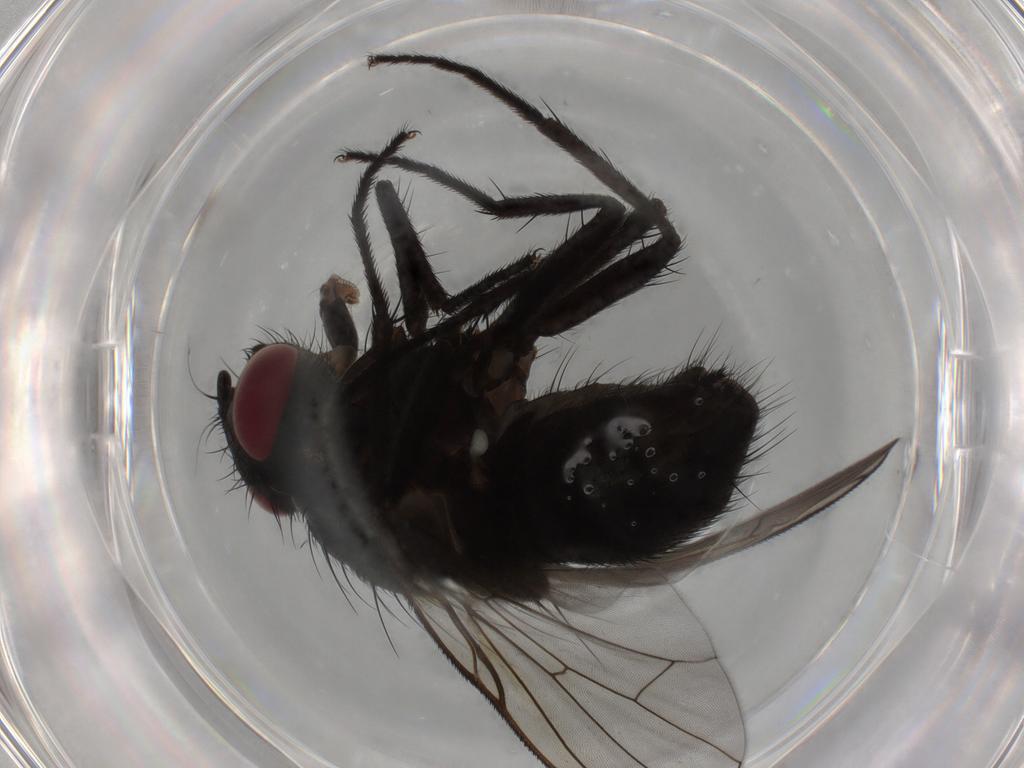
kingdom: Animalia
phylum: Arthropoda
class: Insecta
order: Diptera
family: Muscidae
